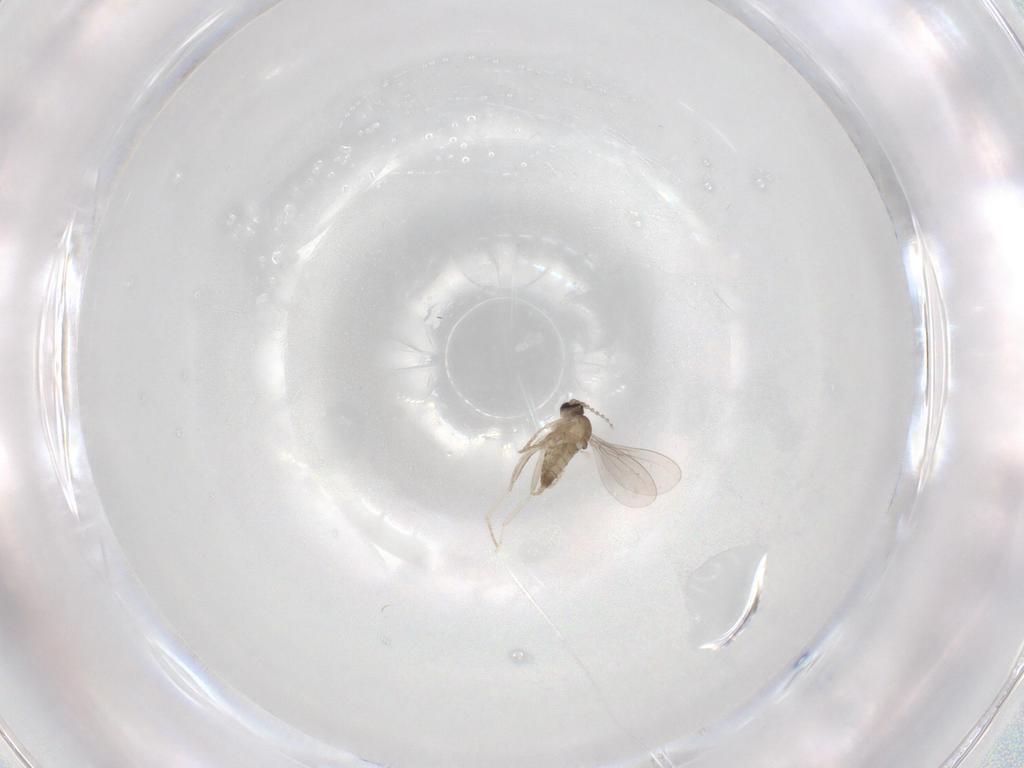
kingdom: Animalia
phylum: Arthropoda
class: Insecta
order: Diptera
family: Cecidomyiidae
